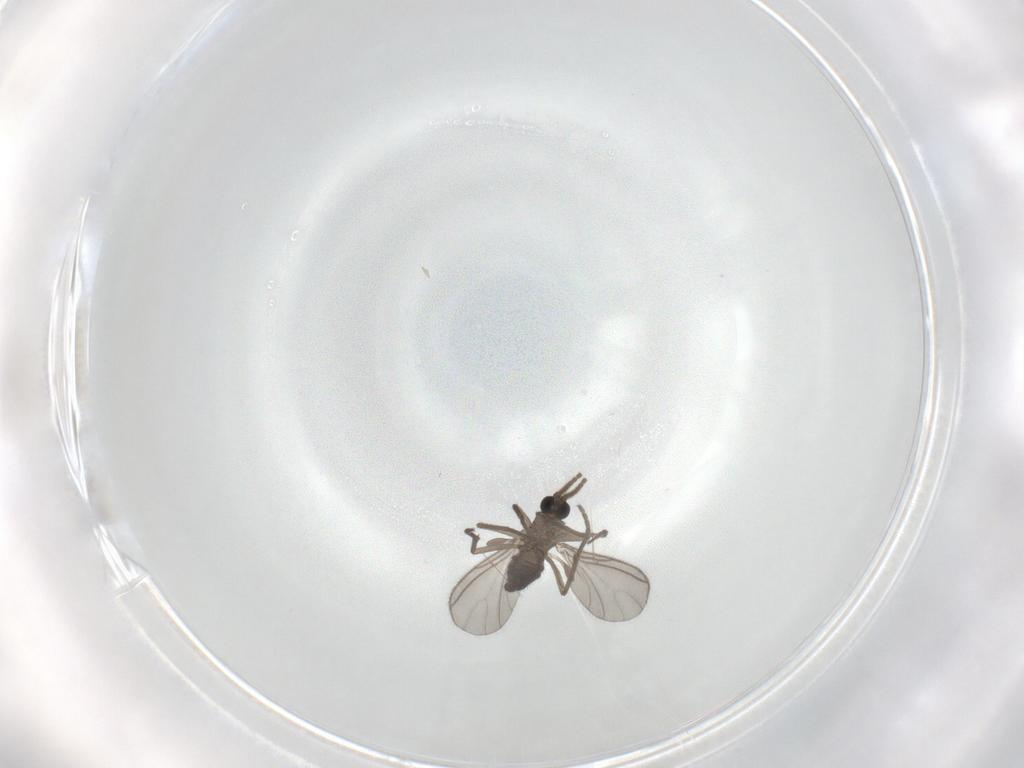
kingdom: Animalia
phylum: Arthropoda
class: Insecta
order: Diptera
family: Sciaridae
